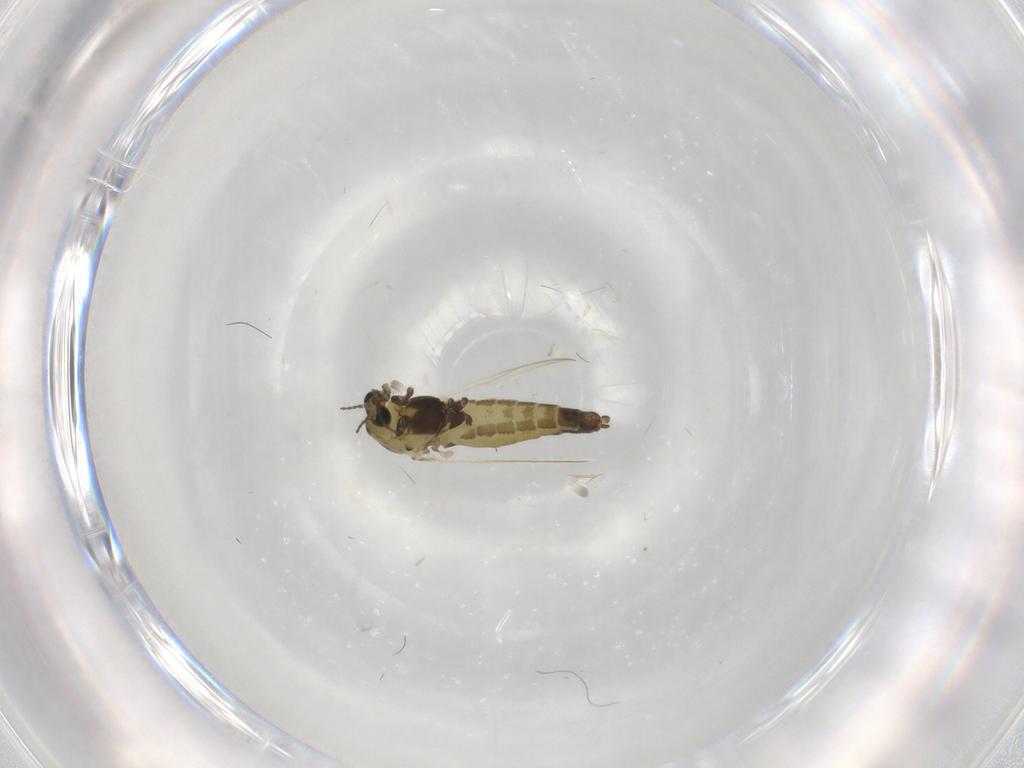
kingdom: Animalia
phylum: Arthropoda
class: Insecta
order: Diptera
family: Chironomidae
